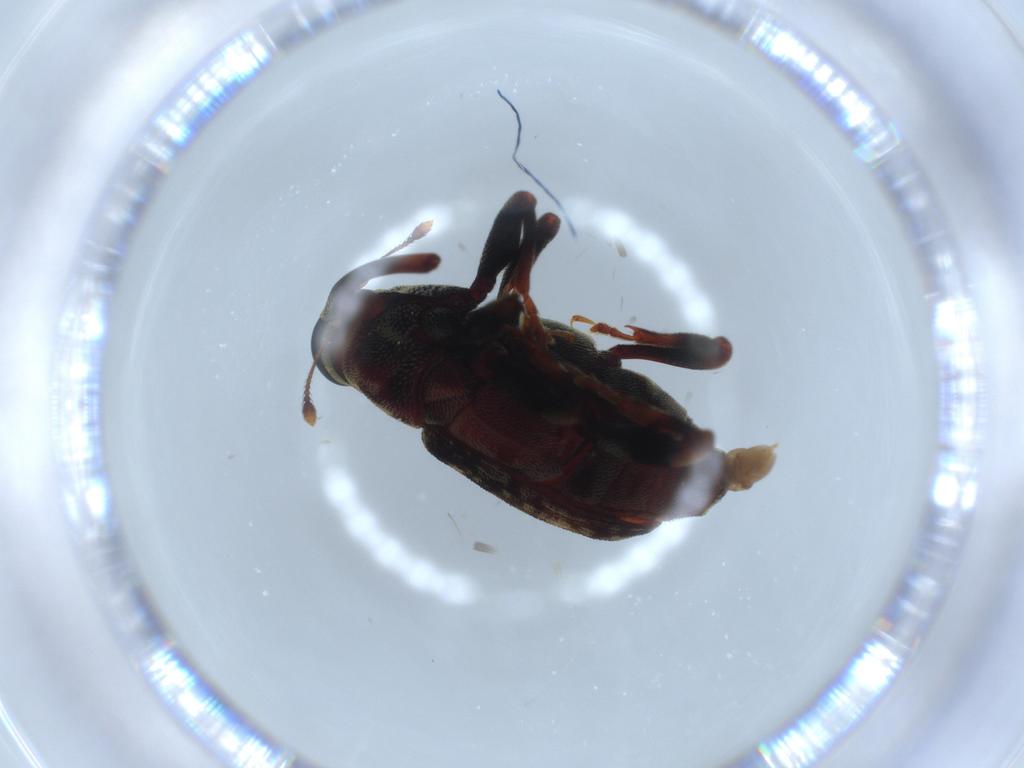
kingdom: Animalia
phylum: Arthropoda
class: Insecta
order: Coleoptera
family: Curculionidae
